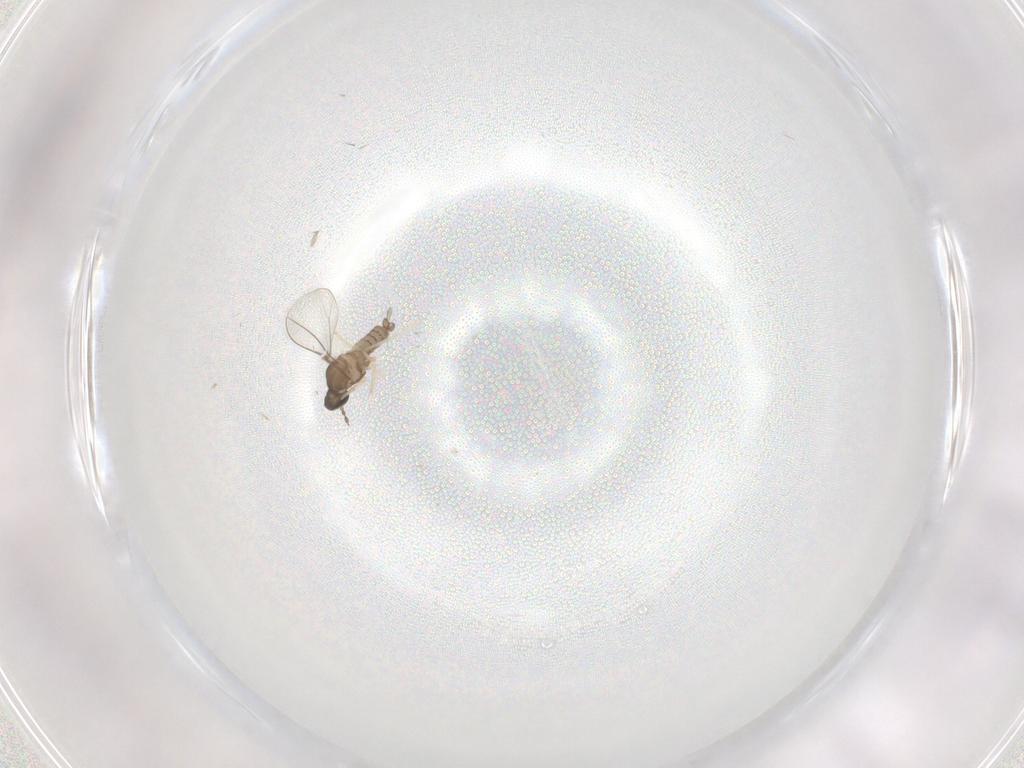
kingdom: Animalia
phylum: Arthropoda
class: Insecta
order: Diptera
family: Cecidomyiidae
